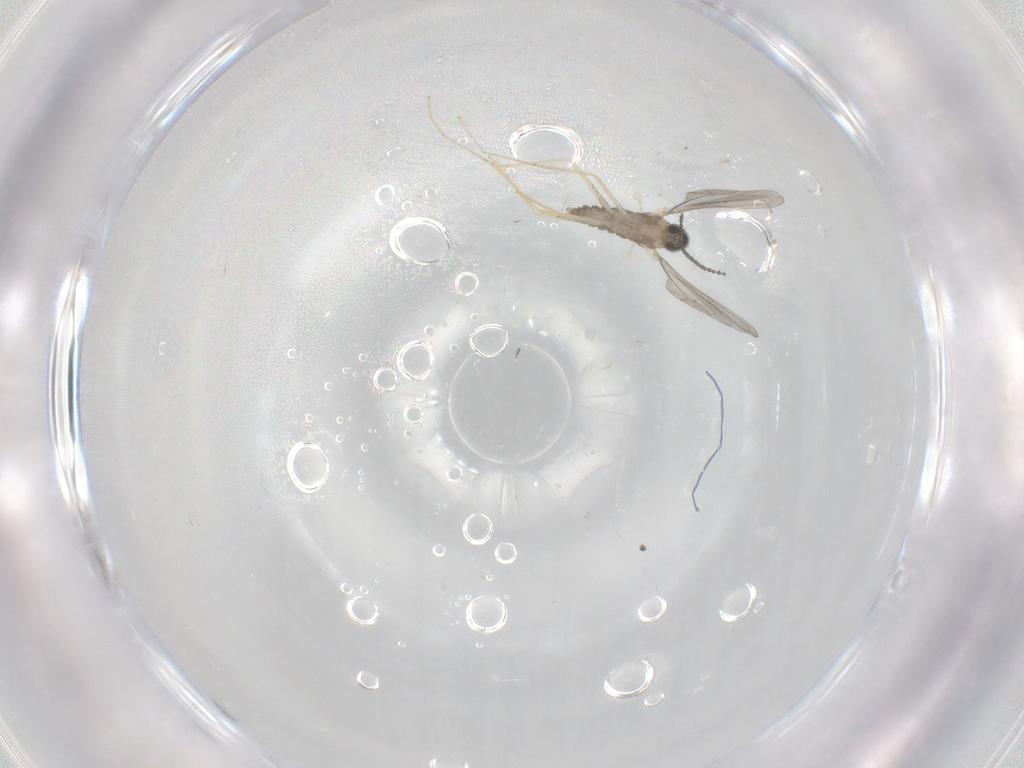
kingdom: Animalia
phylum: Arthropoda
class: Insecta
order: Diptera
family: Cecidomyiidae
